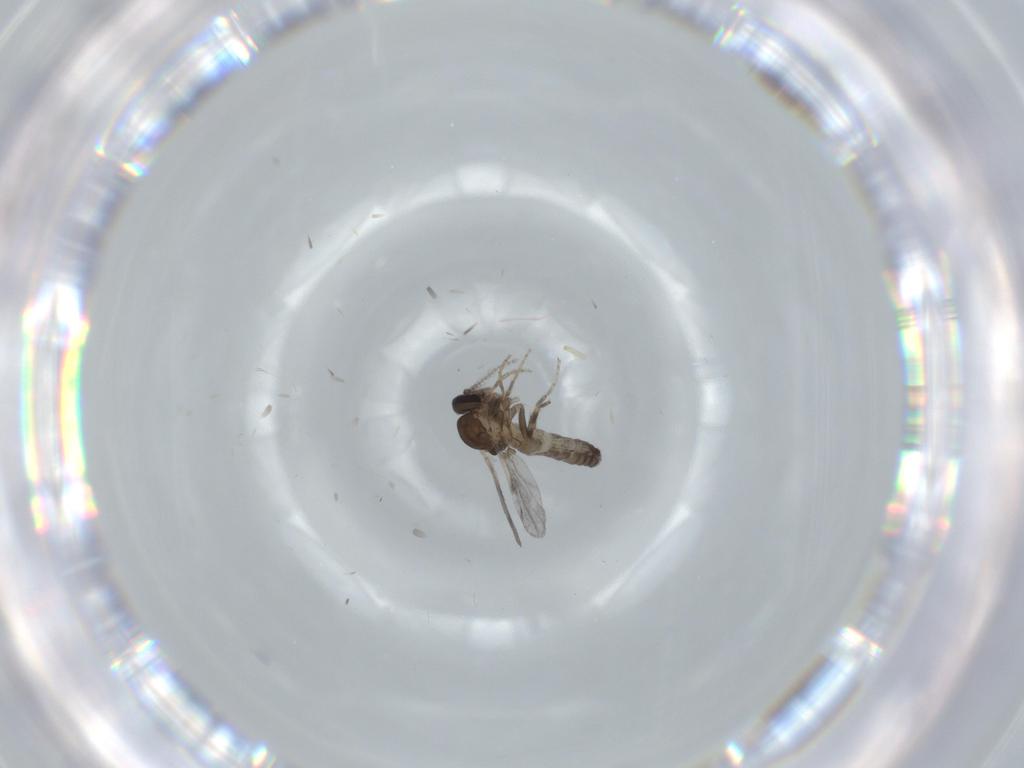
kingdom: Animalia
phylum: Arthropoda
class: Insecta
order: Diptera
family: Ceratopogonidae
